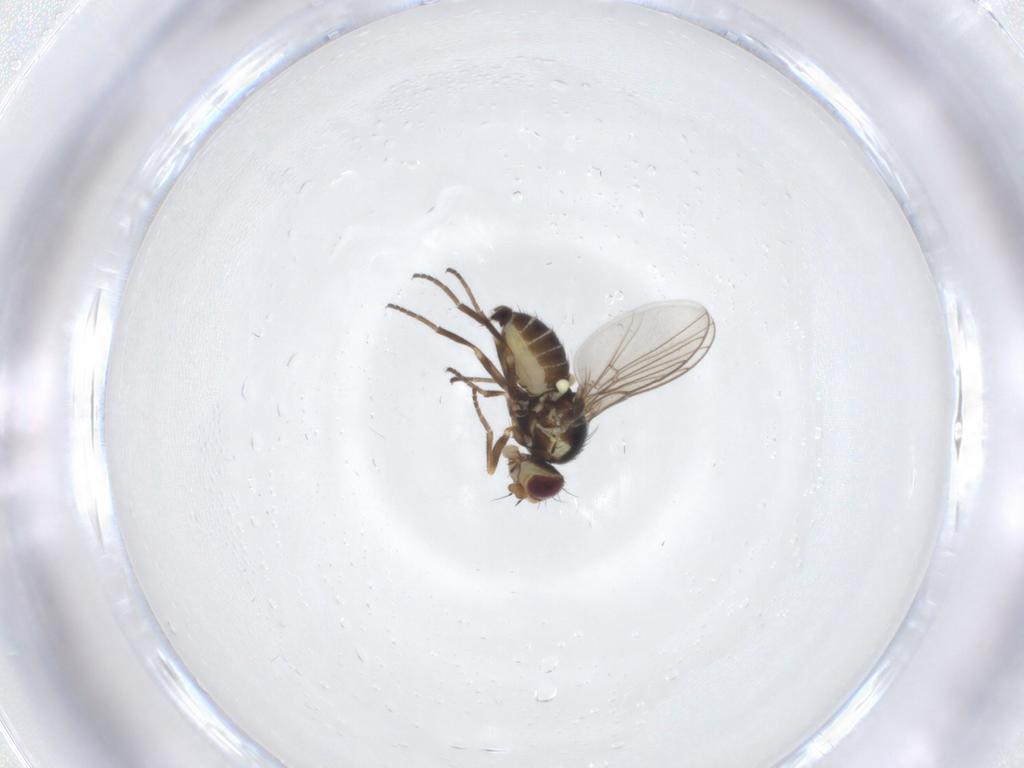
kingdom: Animalia
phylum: Arthropoda
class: Insecta
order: Diptera
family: Agromyzidae
